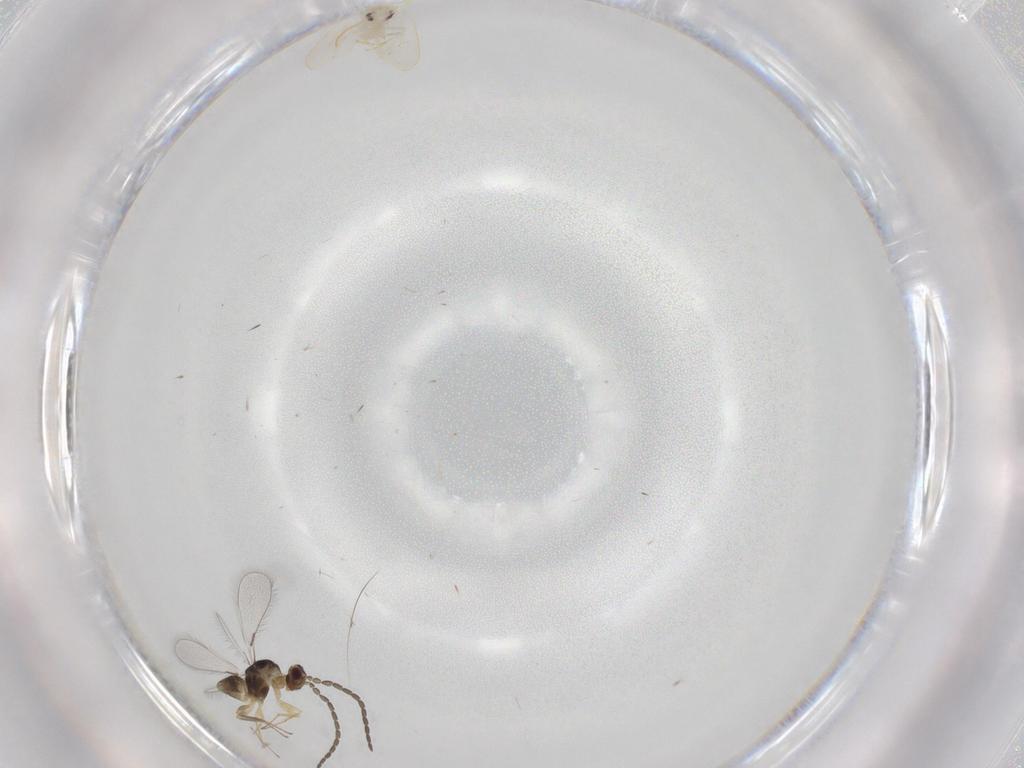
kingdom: Animalia
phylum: Arthropoda
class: Insecta
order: Hemiptera
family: Aleyrodidae
